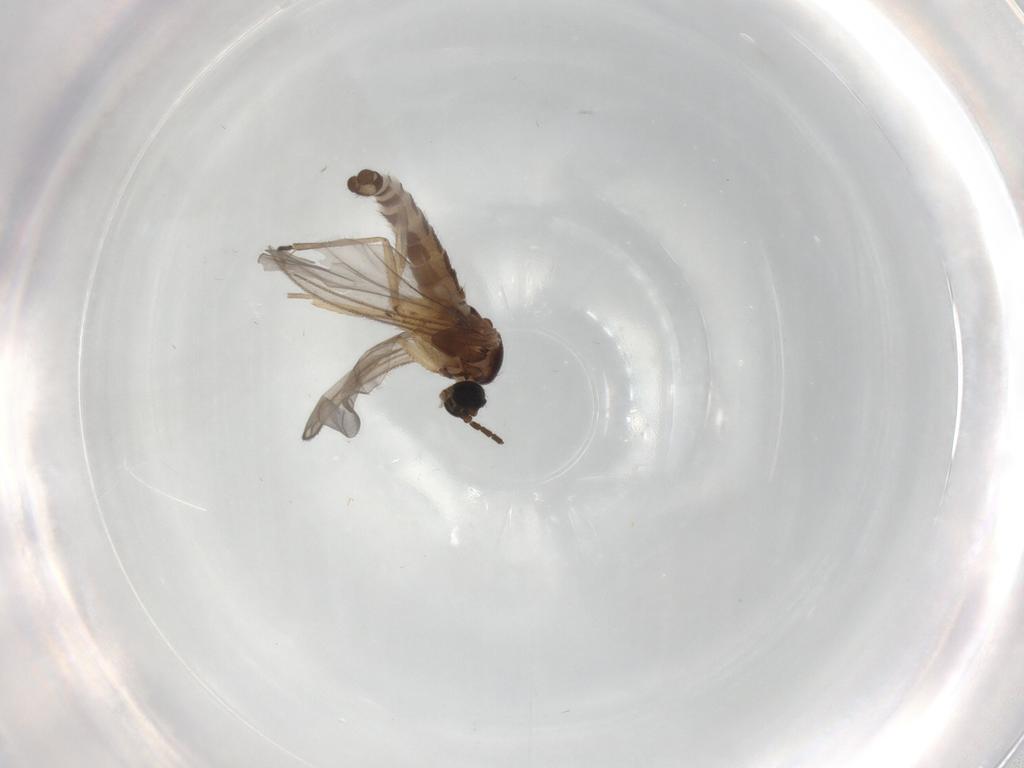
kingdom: Animalia
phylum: Arthropoda
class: Insecta
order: Diptera
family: Sciaridae
